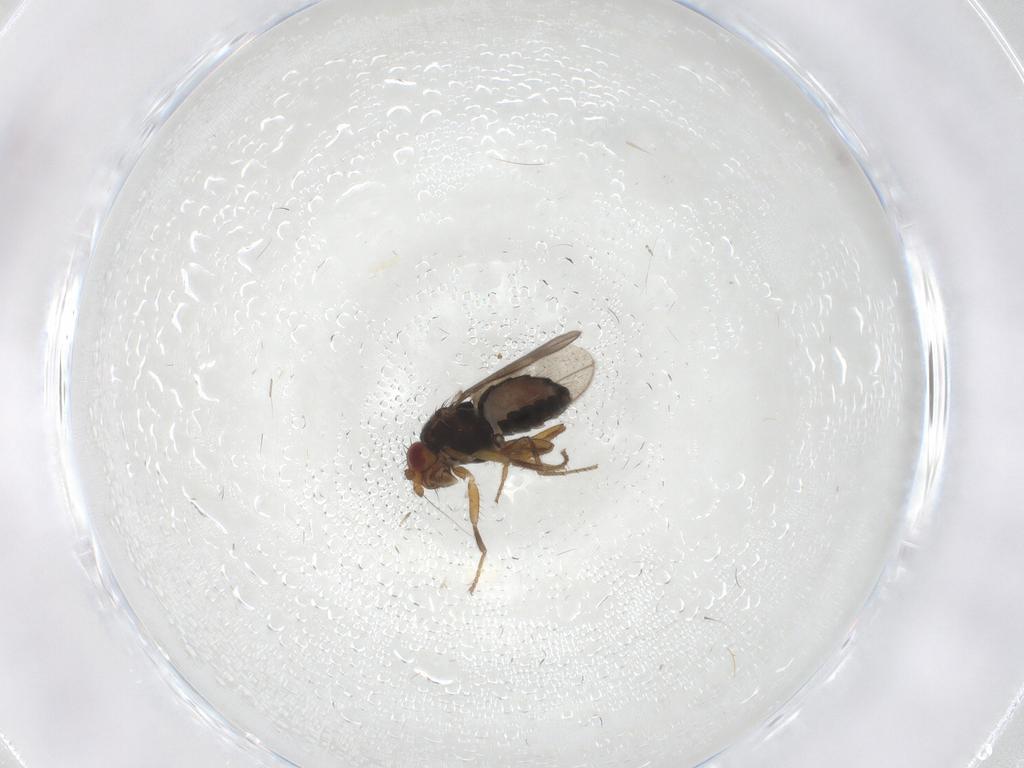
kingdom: Animalia
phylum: Arthropoda
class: Insecta
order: Diptera
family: Sphaeroceridae
